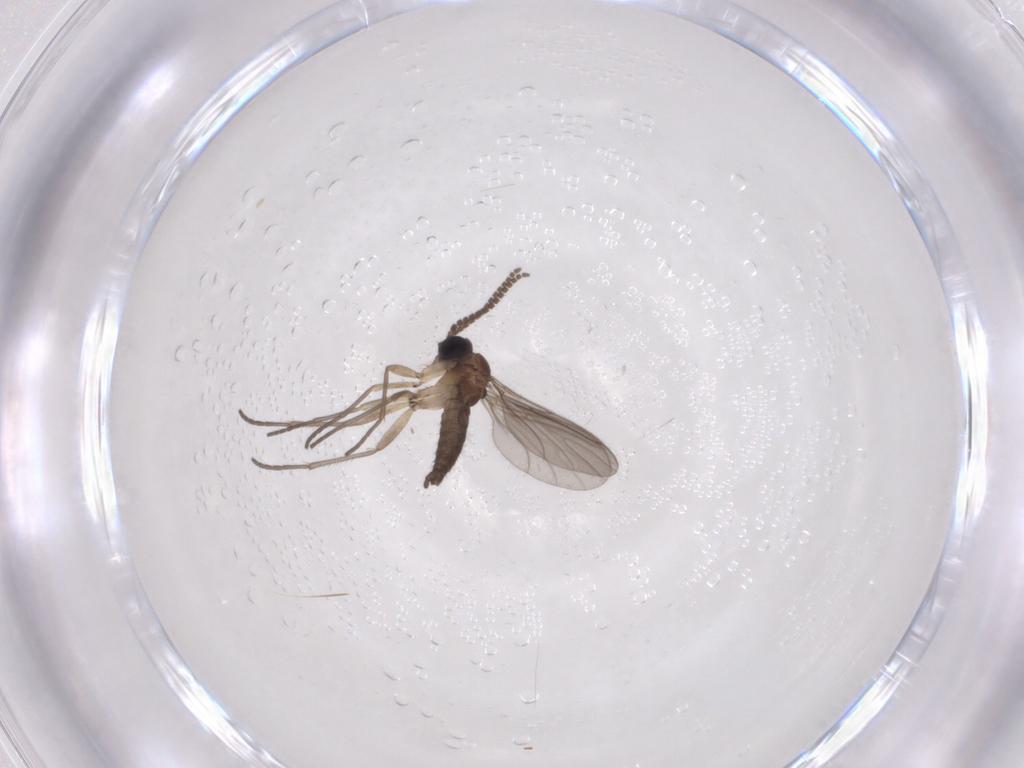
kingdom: Animalia
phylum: Arthropoda
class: Insecta
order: Diptera
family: Sciaridae
